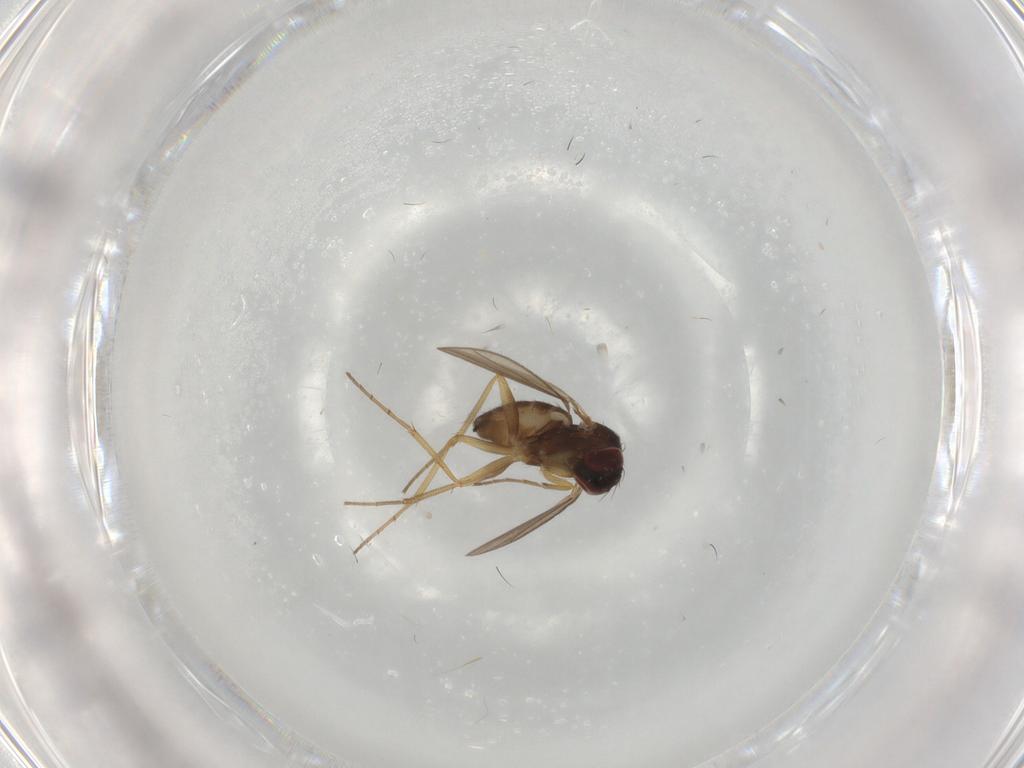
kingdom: Animalia
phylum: Arthropoda
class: Insecta
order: Diptera
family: Dolichopodidae
